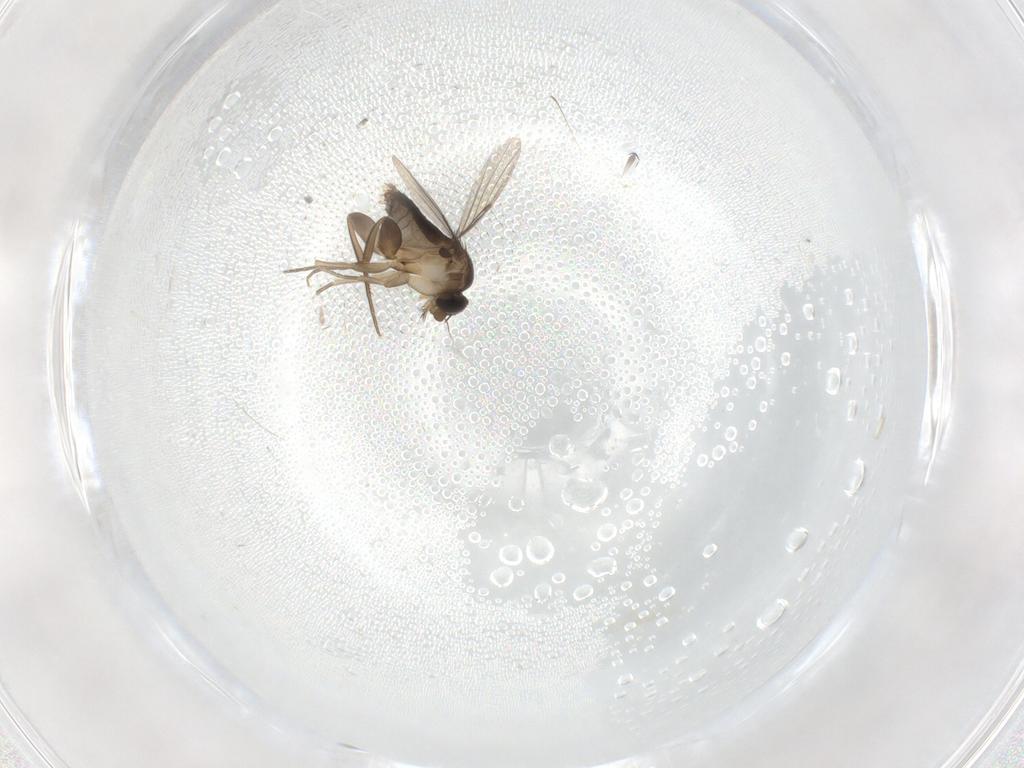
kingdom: Animalia
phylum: Arthropoda
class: Insecta
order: Diptera
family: Phoridae
